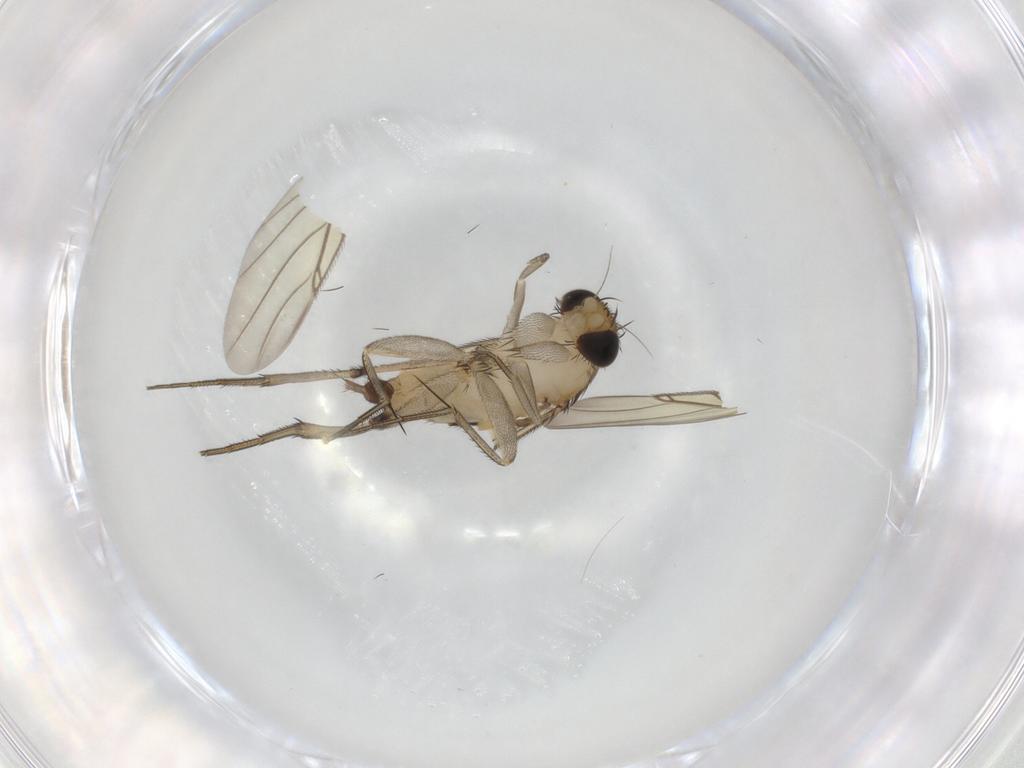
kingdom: Animalia
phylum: Arthropoda
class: Insecta
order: Diptera
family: Phoridae
